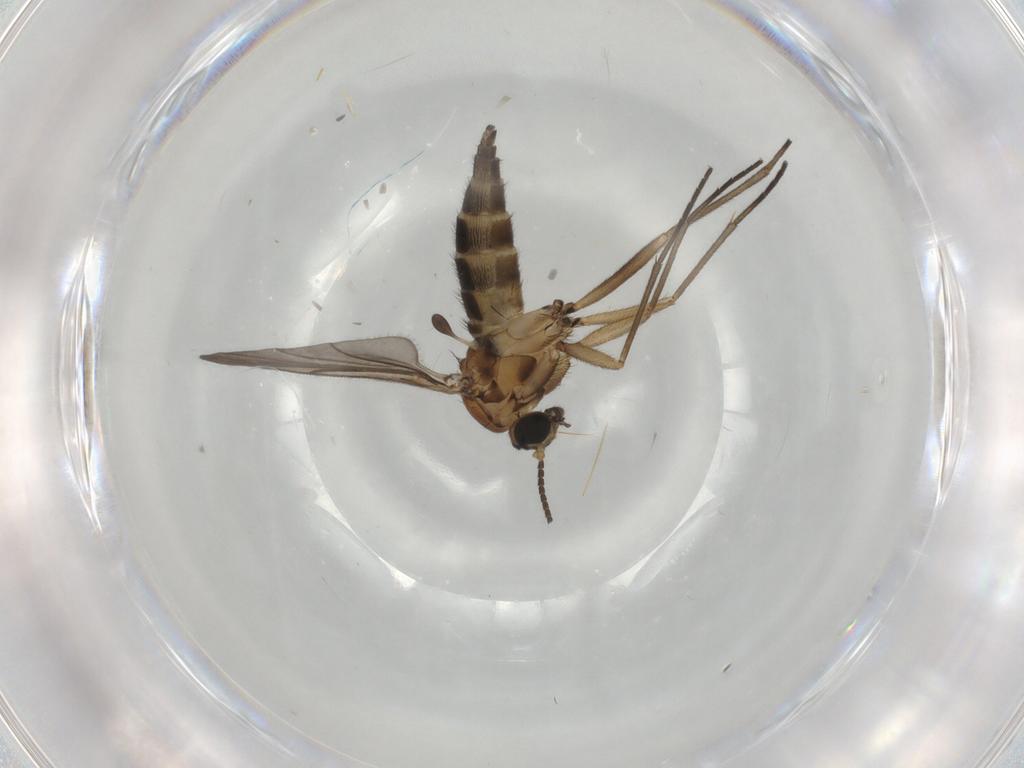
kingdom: Animalia
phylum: Arthropoda
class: Insecta
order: Diptera
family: Sciaridae
